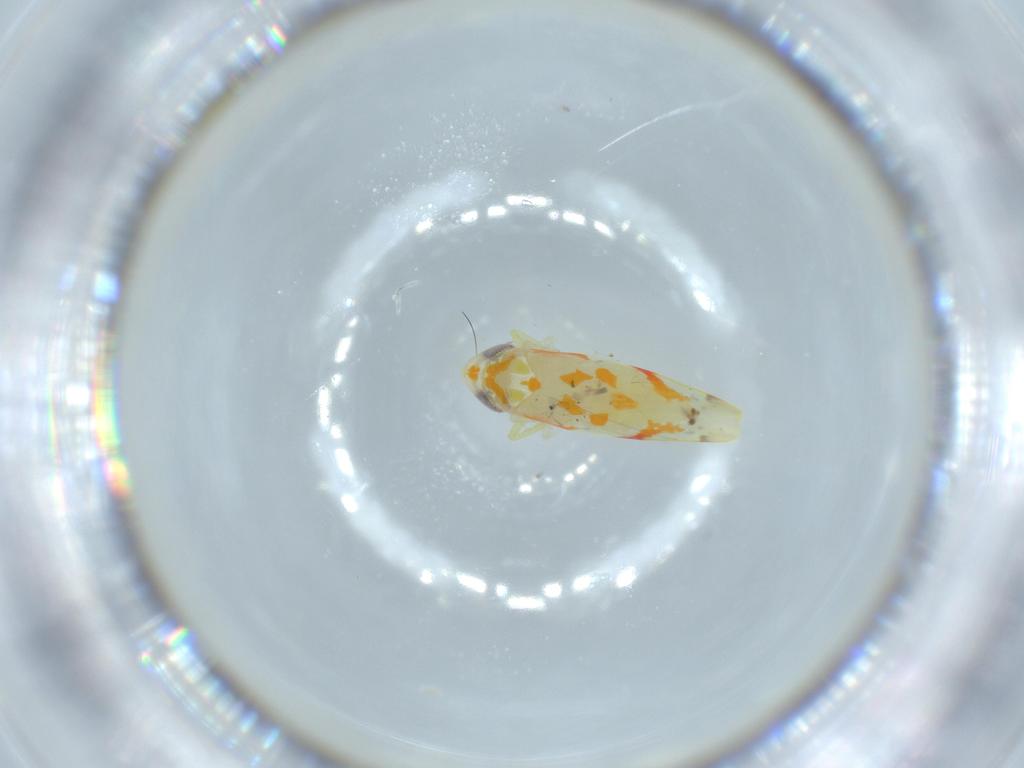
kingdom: Animalia
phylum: Arthropoda
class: Insecta
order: Hemiptera
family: Cicadellidae
